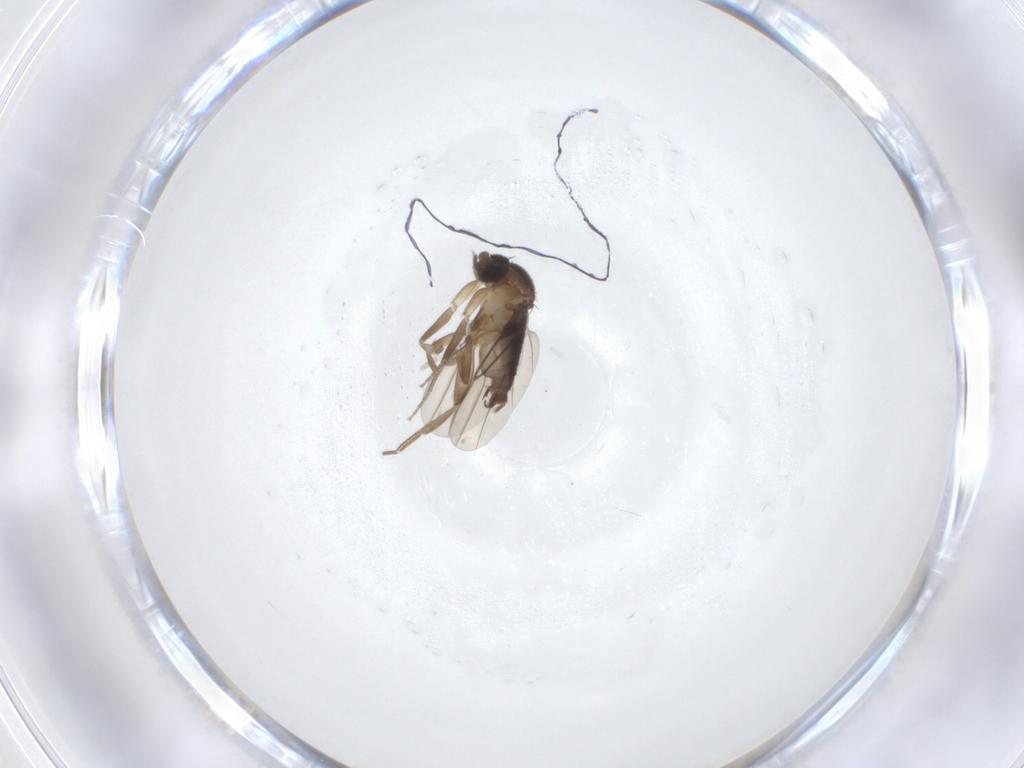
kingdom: Animalia
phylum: Arthropoda
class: Insecta
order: Diptera
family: Phoridae
